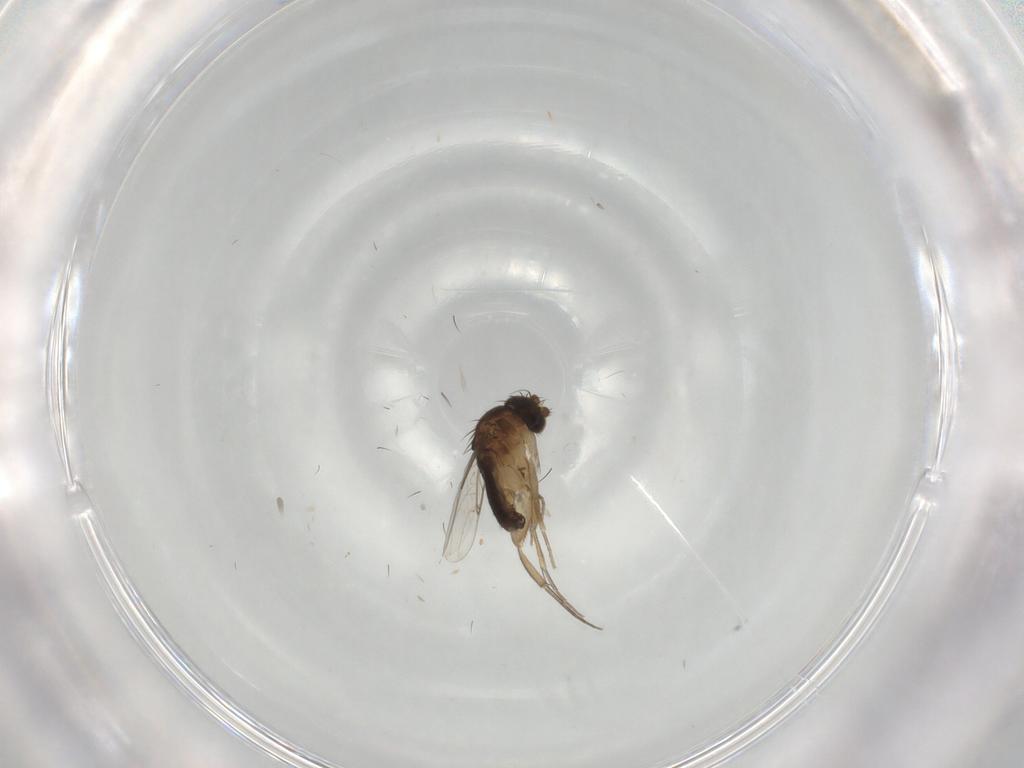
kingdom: Animalia
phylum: Arthropoda
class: Insecta
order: Diptera
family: Phoridae
